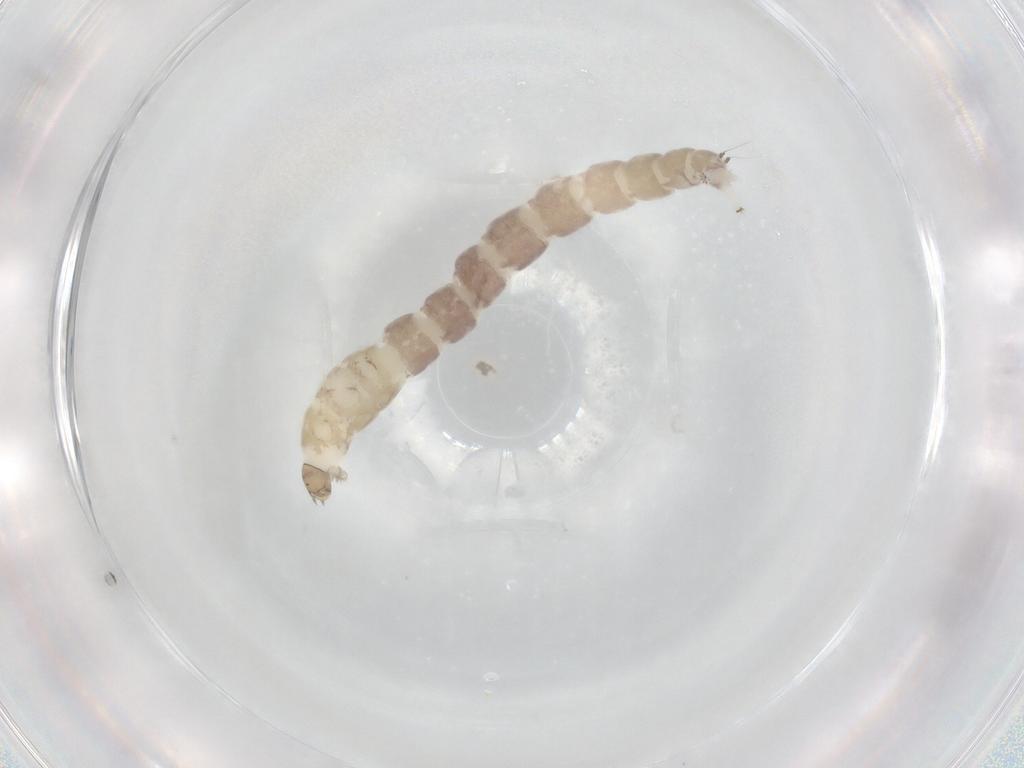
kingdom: Animalia
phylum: Arthropoda
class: Insecta
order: Diptera
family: Chironomidae
